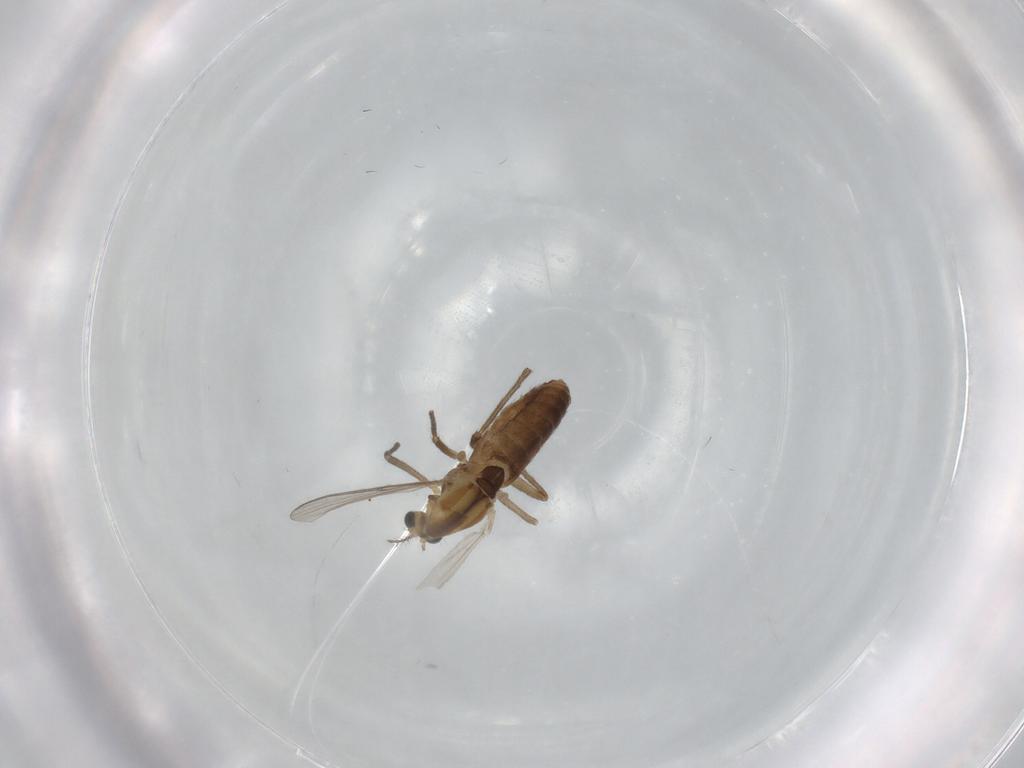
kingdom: Animalia
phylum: Arthropoda
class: Insecta
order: Diptera
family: Chironomidae
